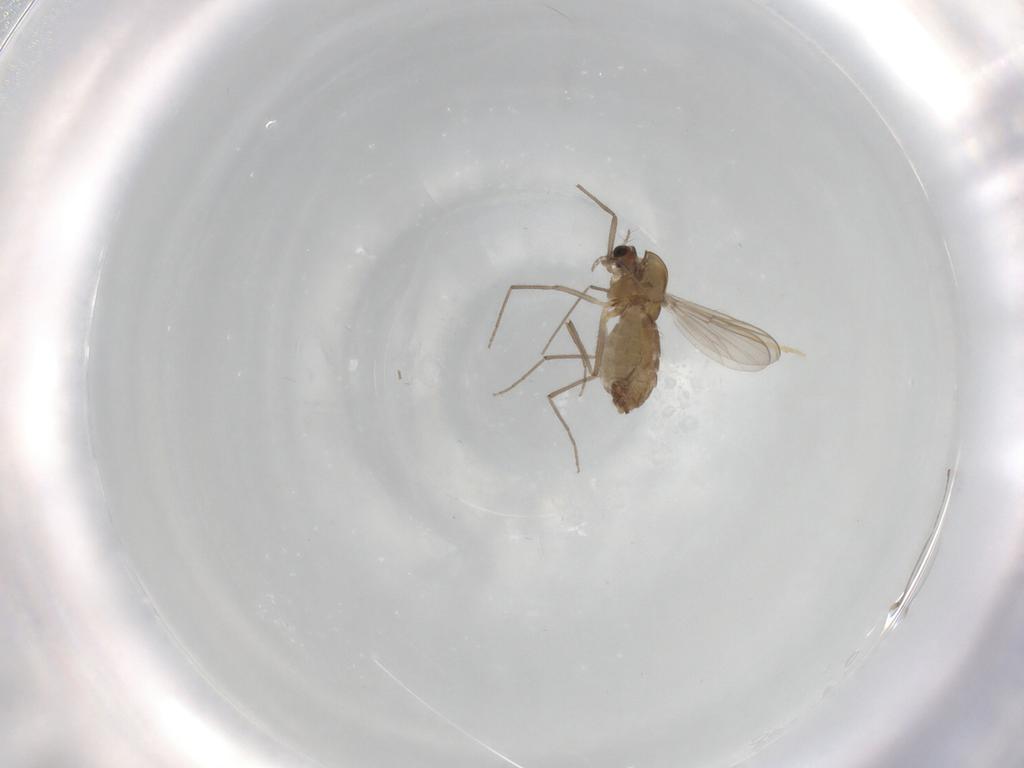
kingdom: Animalia
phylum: Arthropoda
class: Insecta
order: Diptera
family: Chironomidae
